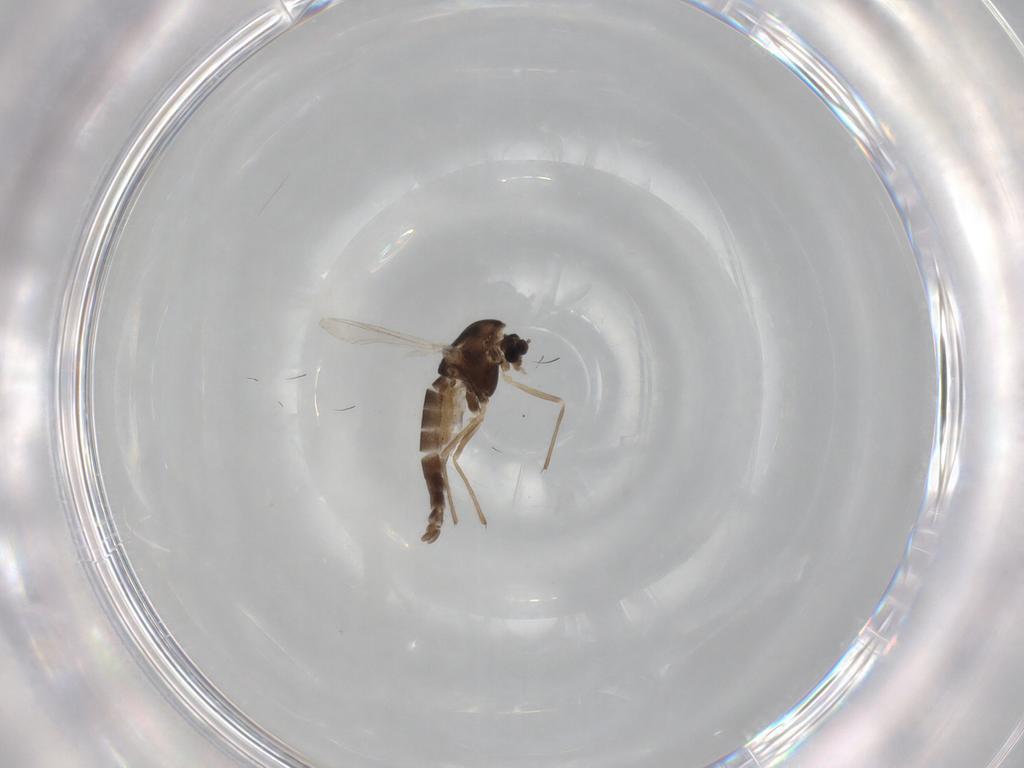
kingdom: Animalia
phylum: Arthropoda
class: Insecta
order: Diptera
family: Chironomidae
